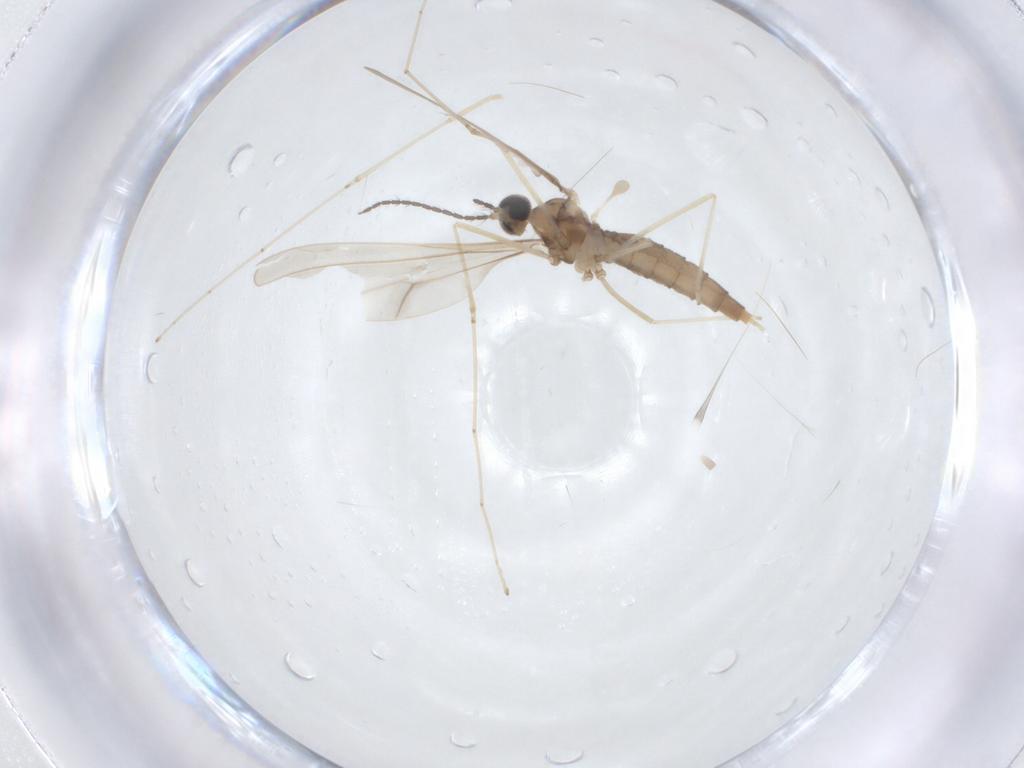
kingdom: Animalia
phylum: Arthropoda
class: Insecta
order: Diptera
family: Cecidomyiidae
